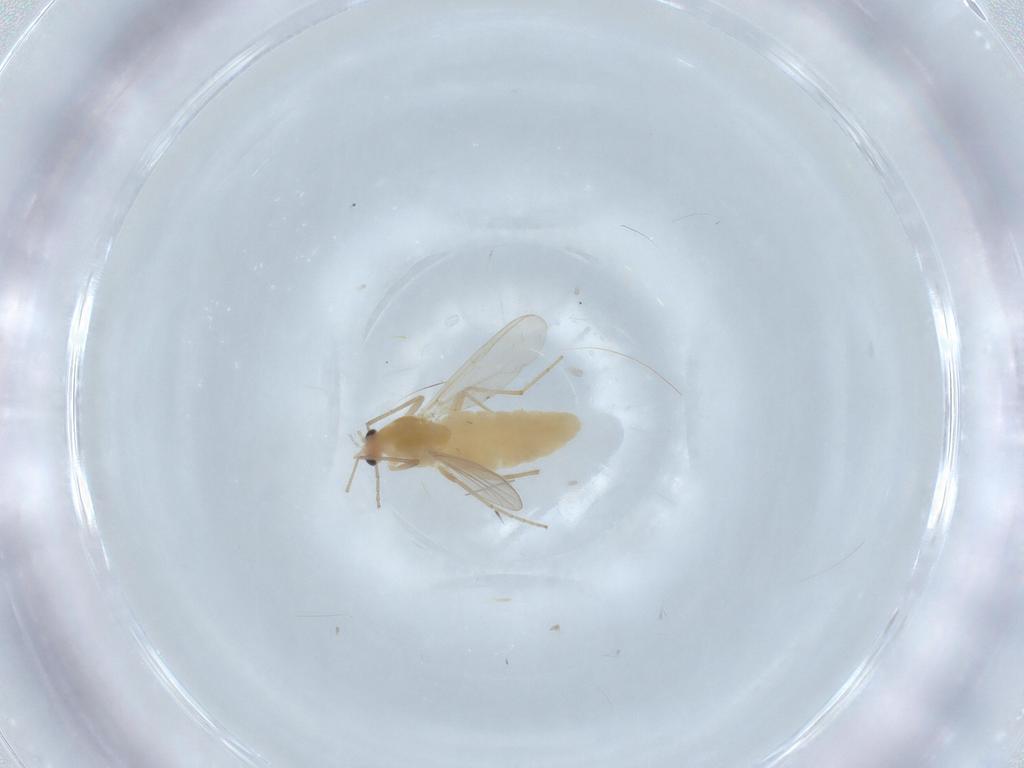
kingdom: Animalia
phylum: Arthropoda
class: Insecta
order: Diptera
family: Chironomidae
